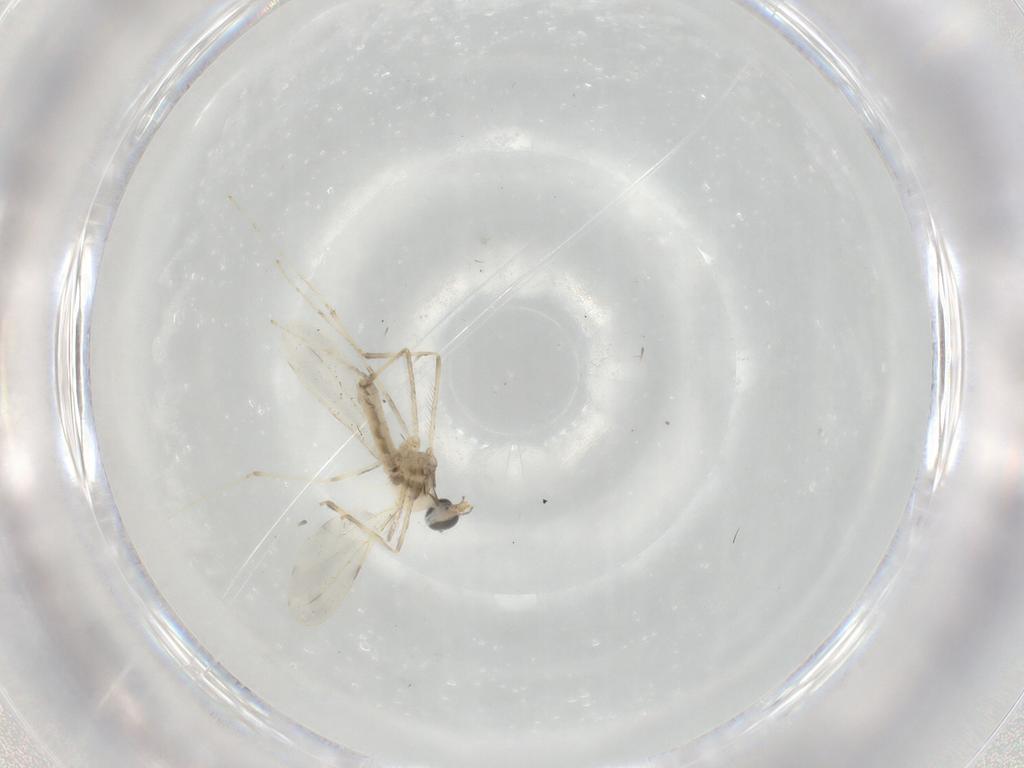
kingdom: Animalia
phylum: Arthropoda
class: Insecta
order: Diptera
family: Cecidomyiidae
